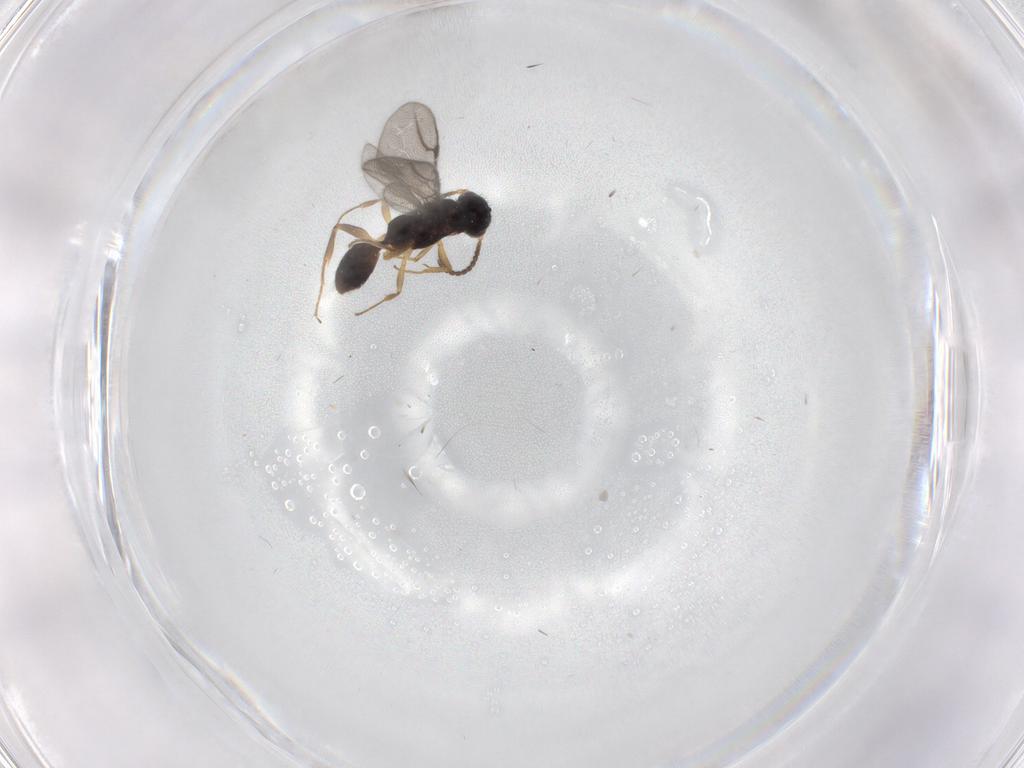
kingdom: Animalia
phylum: Arthropoda
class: Insecta
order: Hymenoptera
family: Bethylidae
